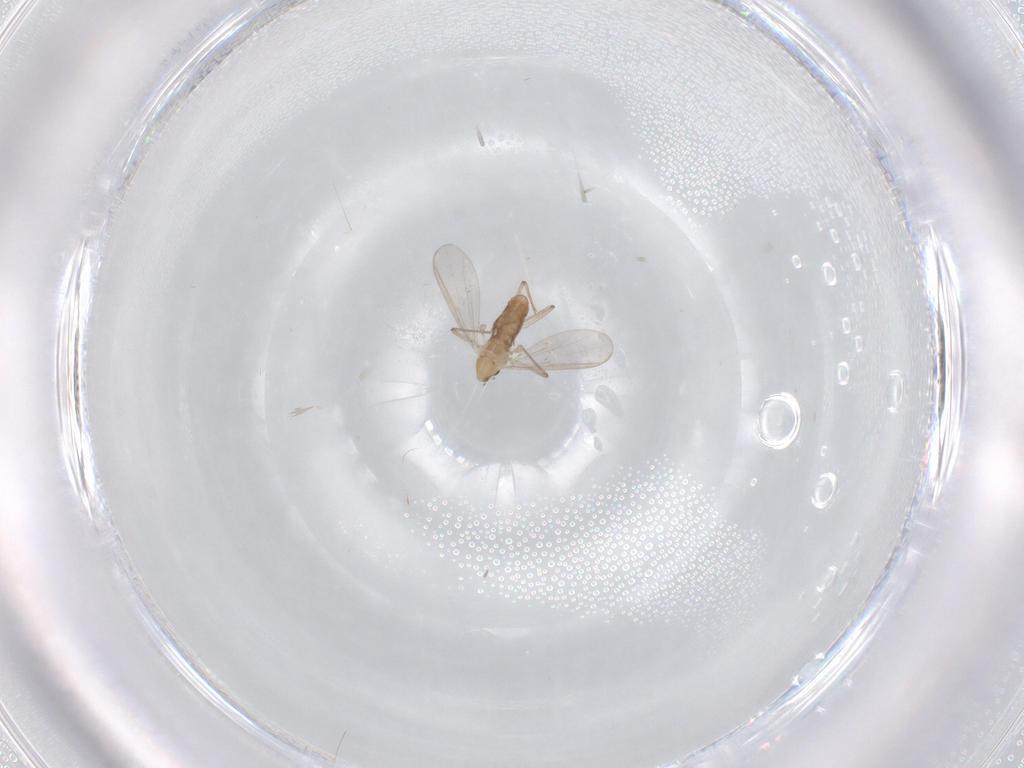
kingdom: Animalia
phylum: Arthropoda
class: Insecta
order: Diptera
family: Chironomidae
